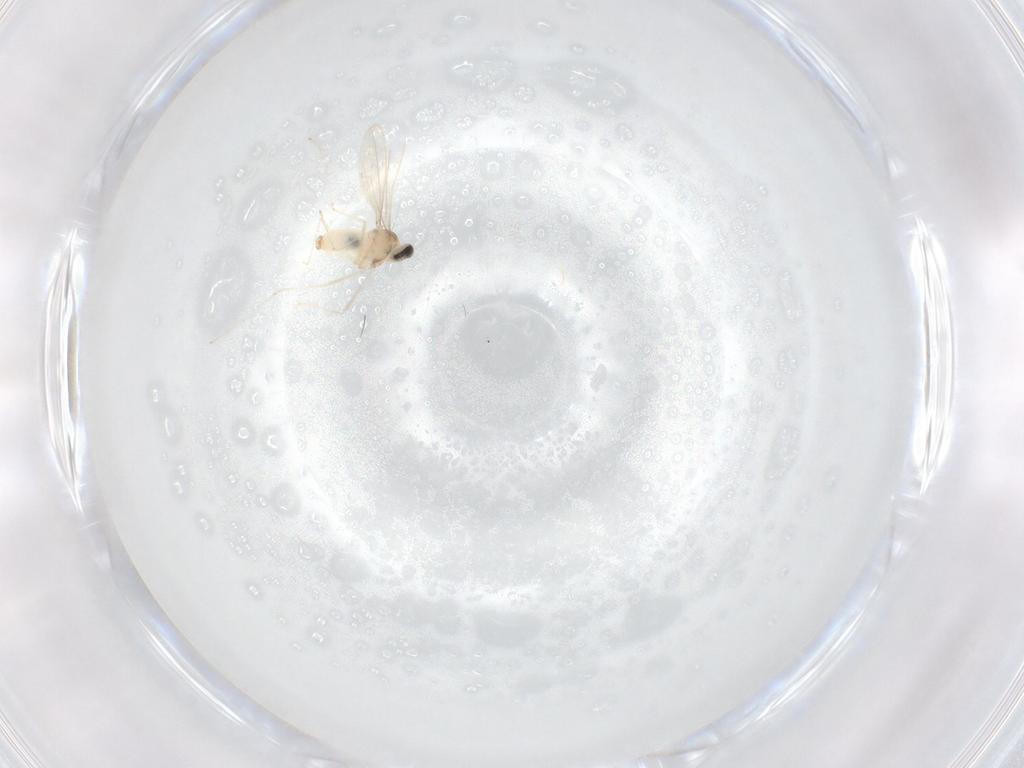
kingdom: Animalia
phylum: Arthropoda
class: Insecta
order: Diptera
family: Cecidomyiidae
